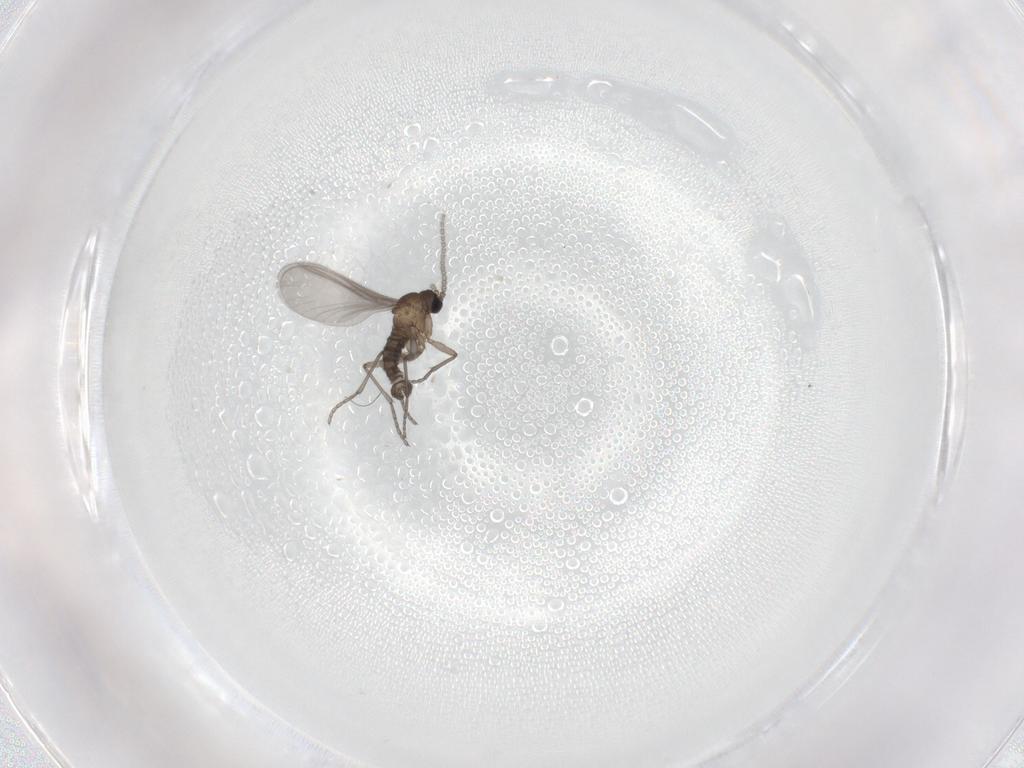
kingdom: Animalia
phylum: Arthropoda
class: Insecta
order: Diptera
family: Sciaridae
